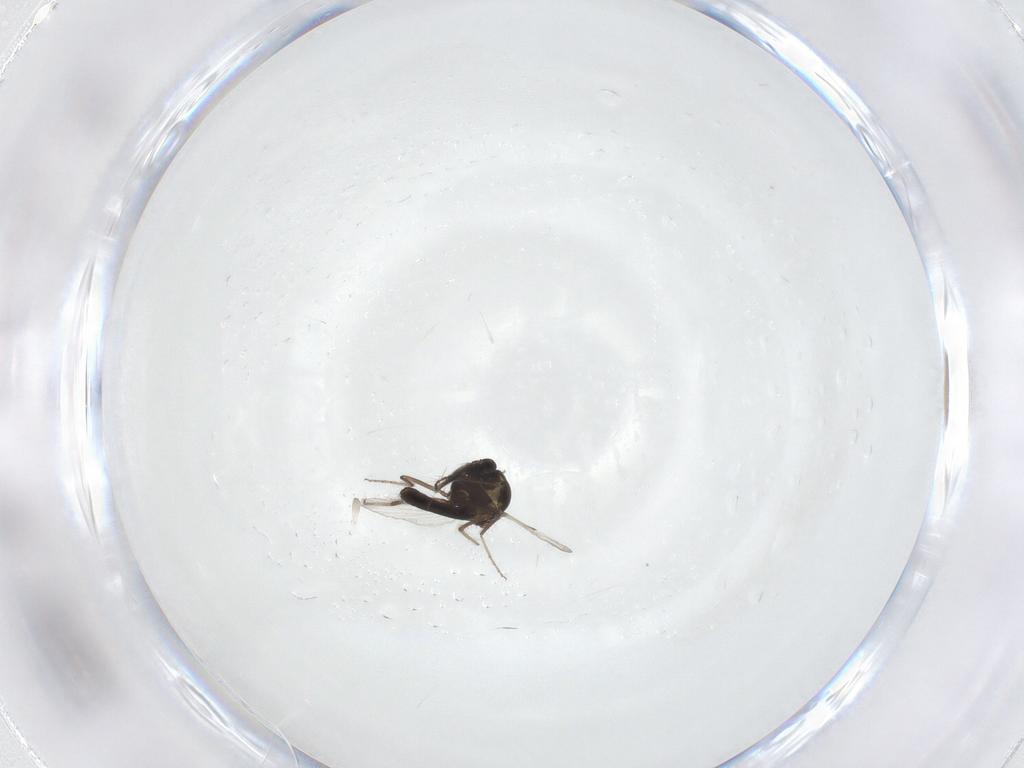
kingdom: Animalia
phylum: Arthropoda
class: Insecta
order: Diptera
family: Ceratopogonidae
